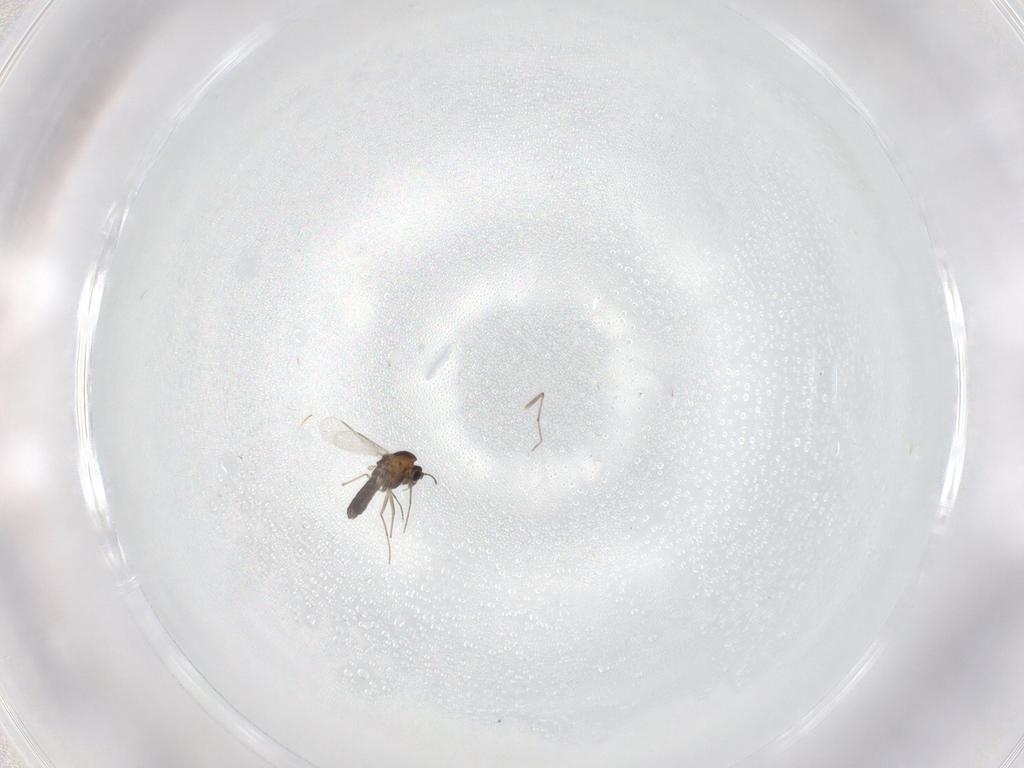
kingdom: Animalia
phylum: Arthropoda
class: Insecta
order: Diptera
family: Chironomidae
